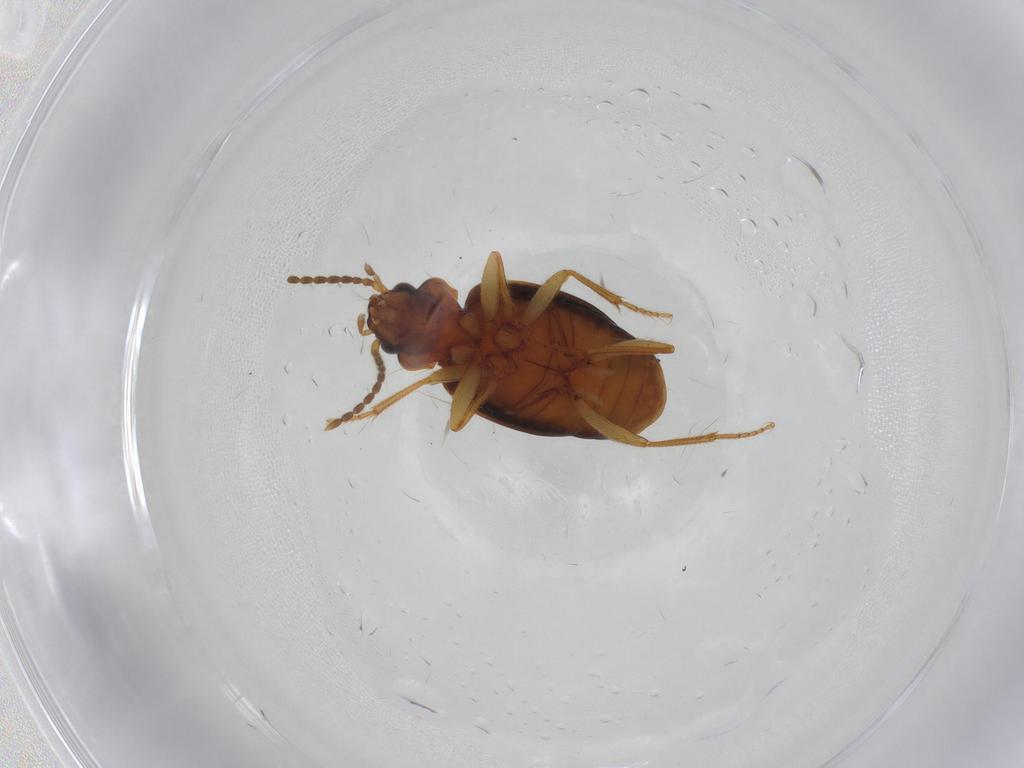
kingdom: Animalia
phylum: Arthropoda
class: Insecta
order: Coleoptera
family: Carabidae
